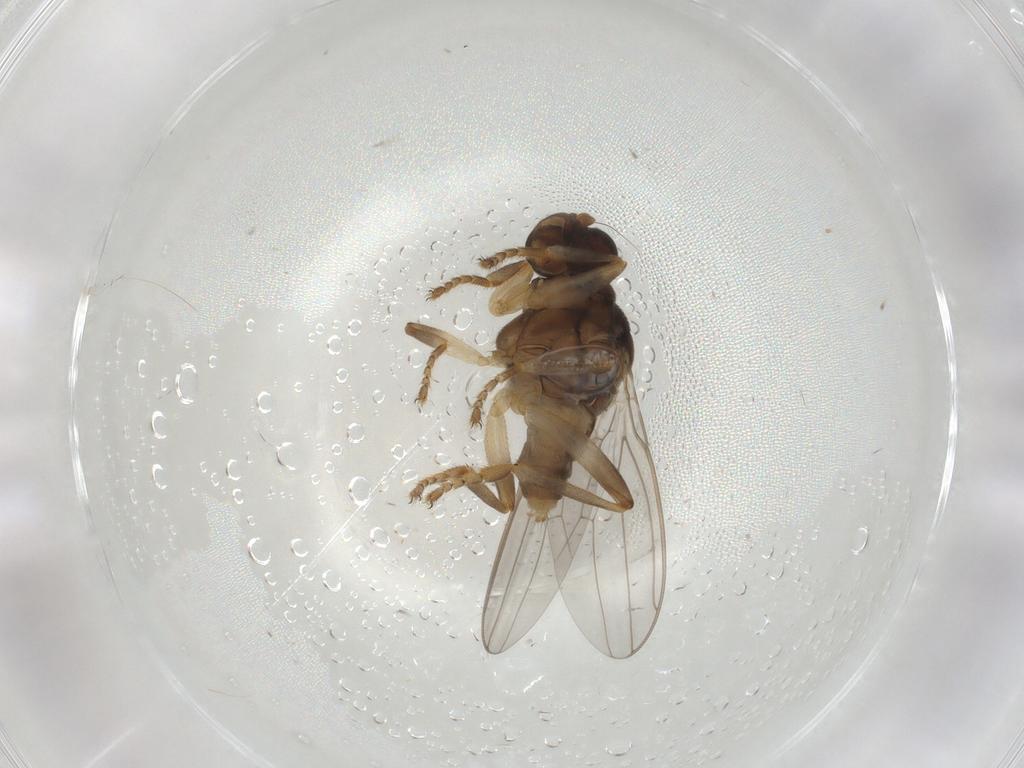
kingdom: Animalia
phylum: Arthropoda
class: Insecta
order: Diptera
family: Sphaeroceridae
